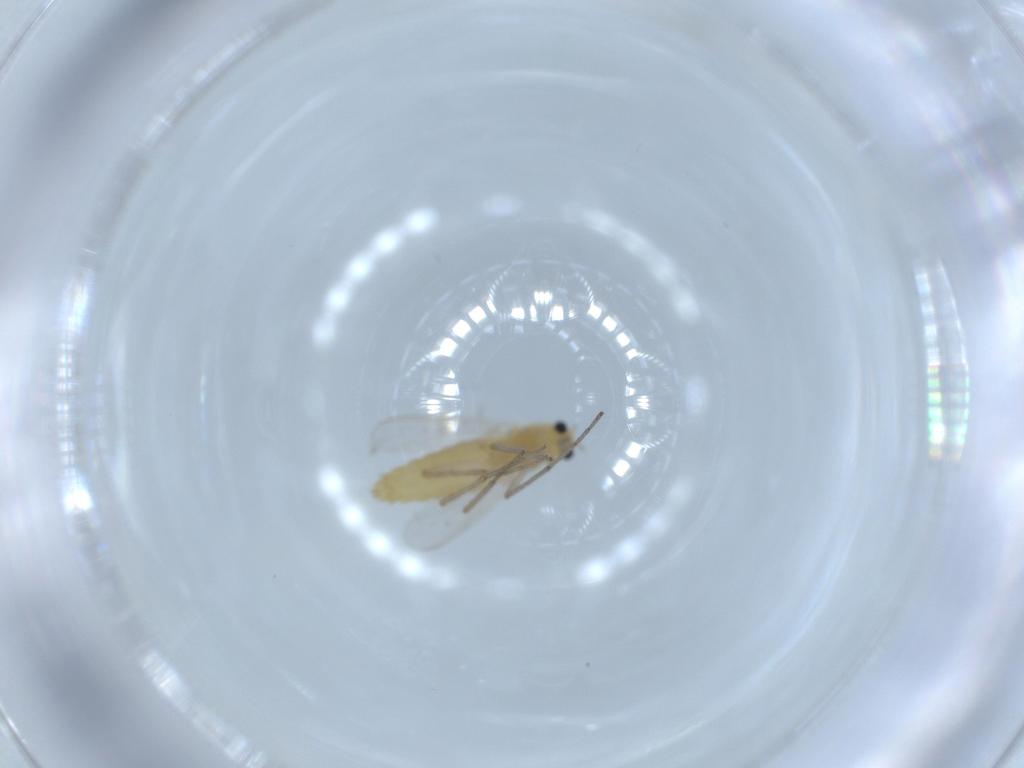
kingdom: Animalia
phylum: Arthropoda
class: Insecta
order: Diptera
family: Chironomidae
